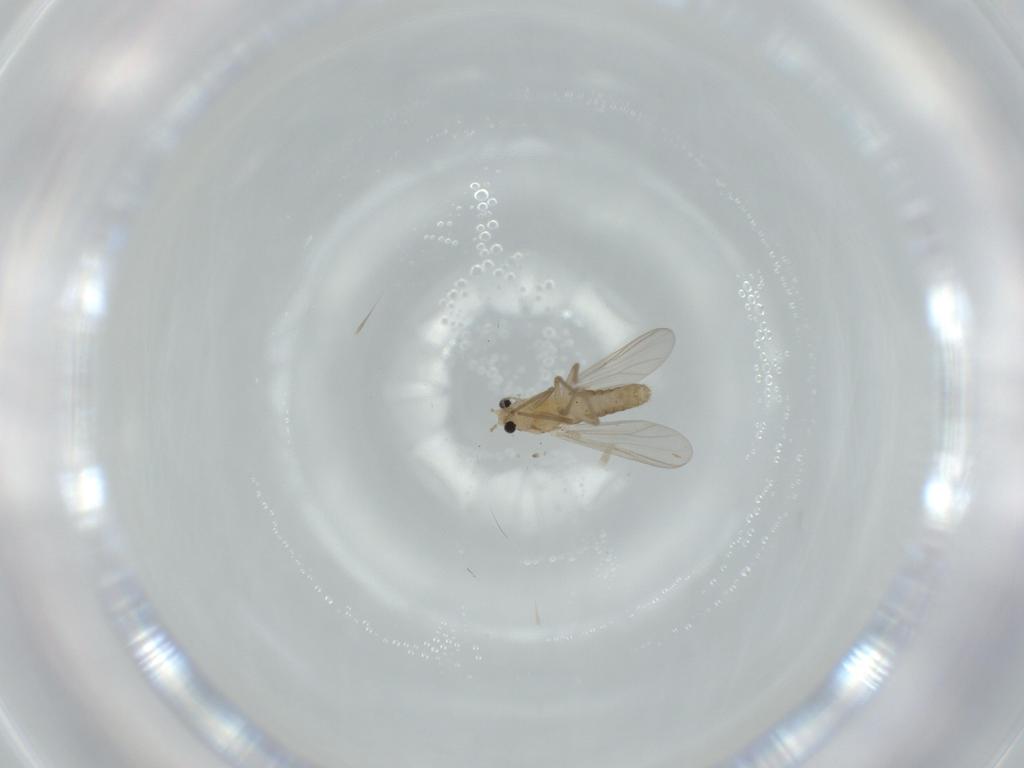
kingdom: Animalia
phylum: Arthropoda
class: Insecta
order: Diptera
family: Chironomidae
